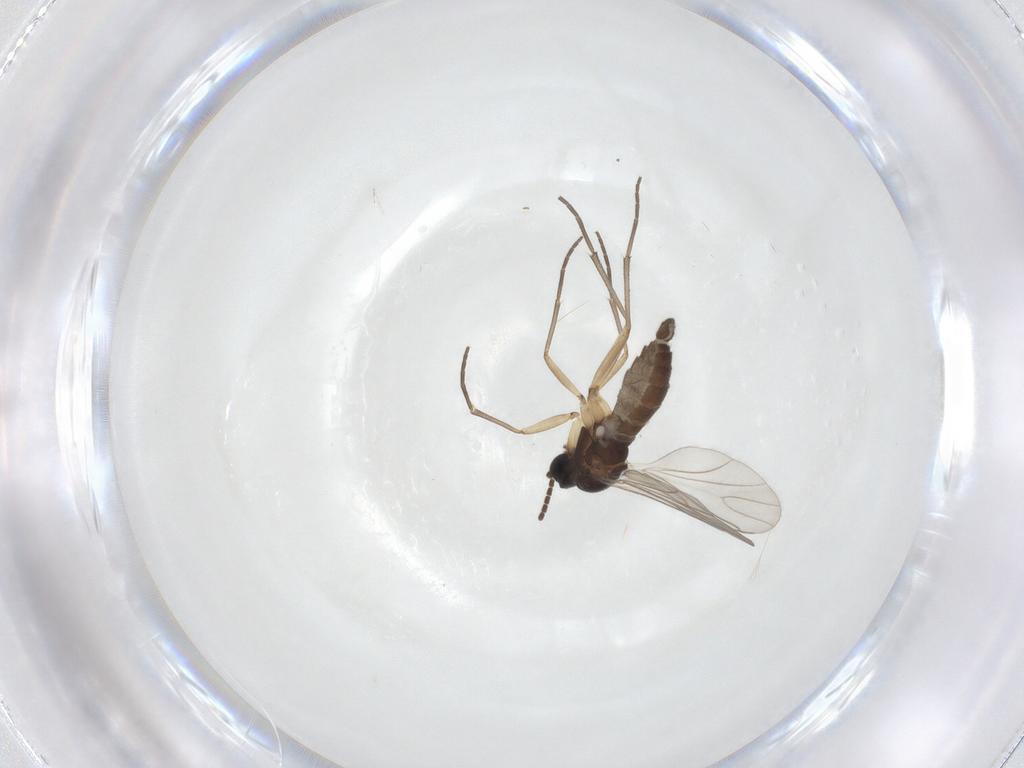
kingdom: Animalia
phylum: Arthropoda
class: Insecta
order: Diptera
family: Sciaridae
